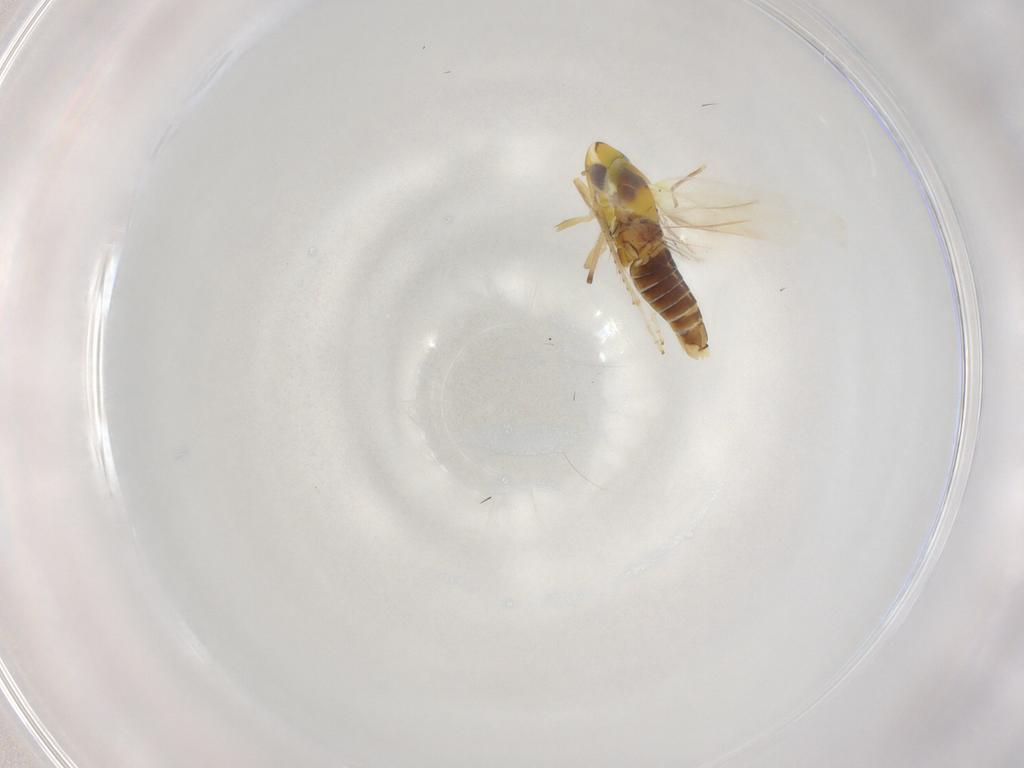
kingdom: Animalia
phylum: Arthropoda
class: Insecta
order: Hemiptera
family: Cicadellidae
